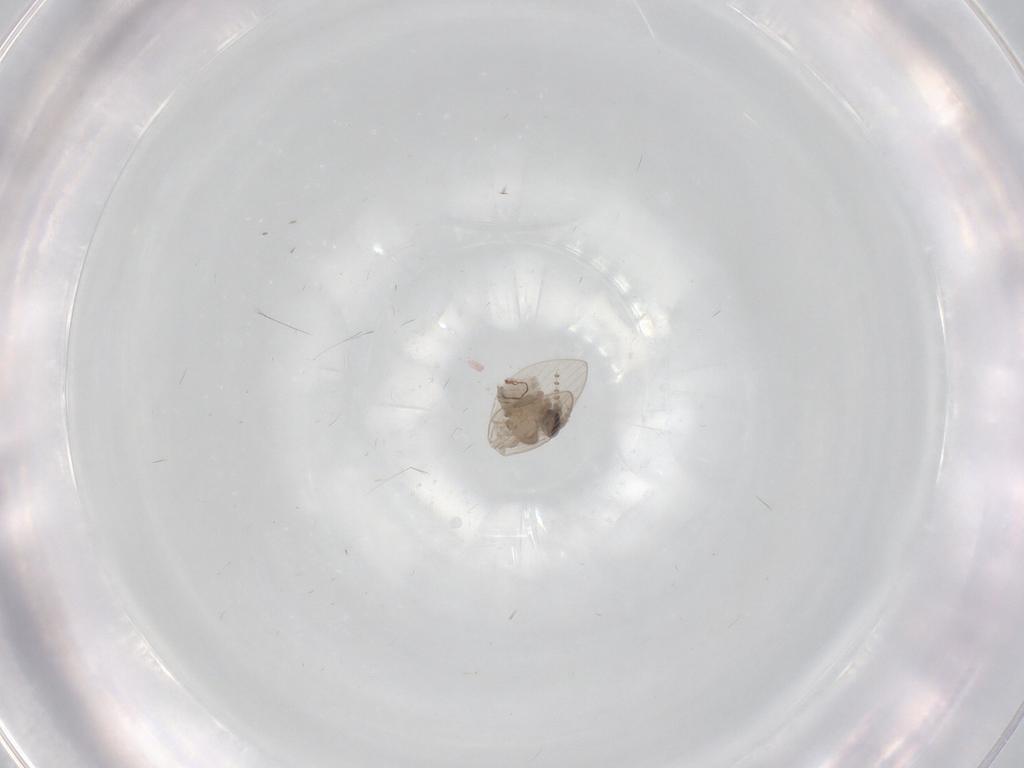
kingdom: Animalia
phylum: Arthropoda
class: Insecta
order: Diptera
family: Psychodidae
